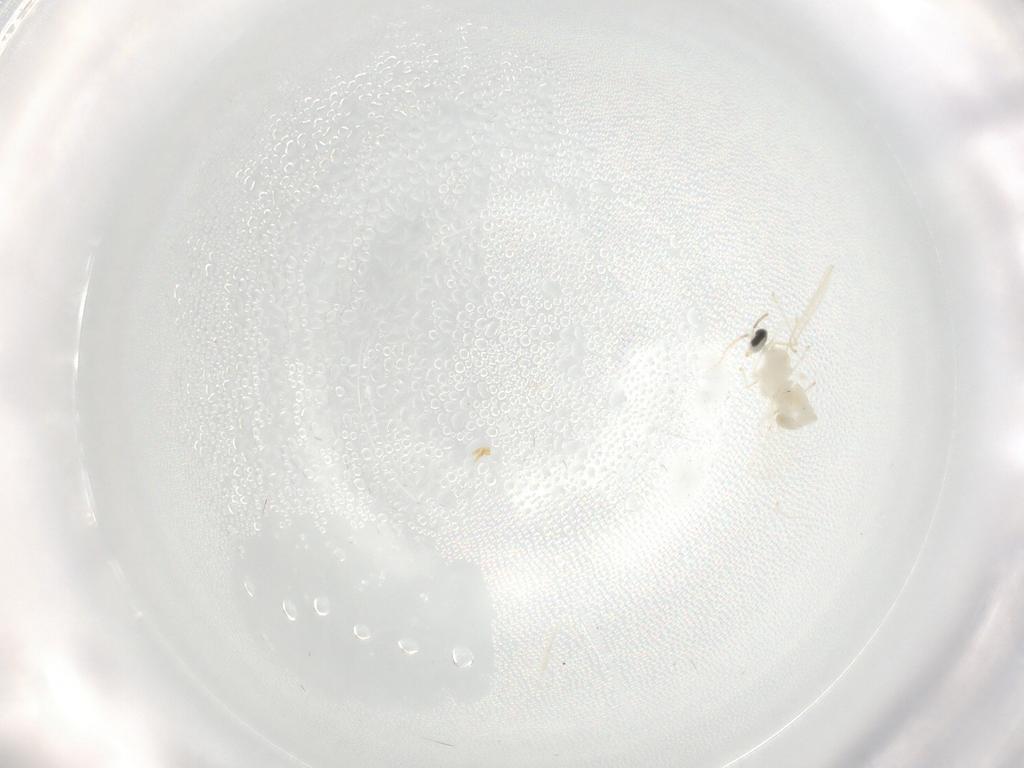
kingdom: Animalia
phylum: Arthropoda
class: Insecta
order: Diptera
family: Cecidomyiidae
